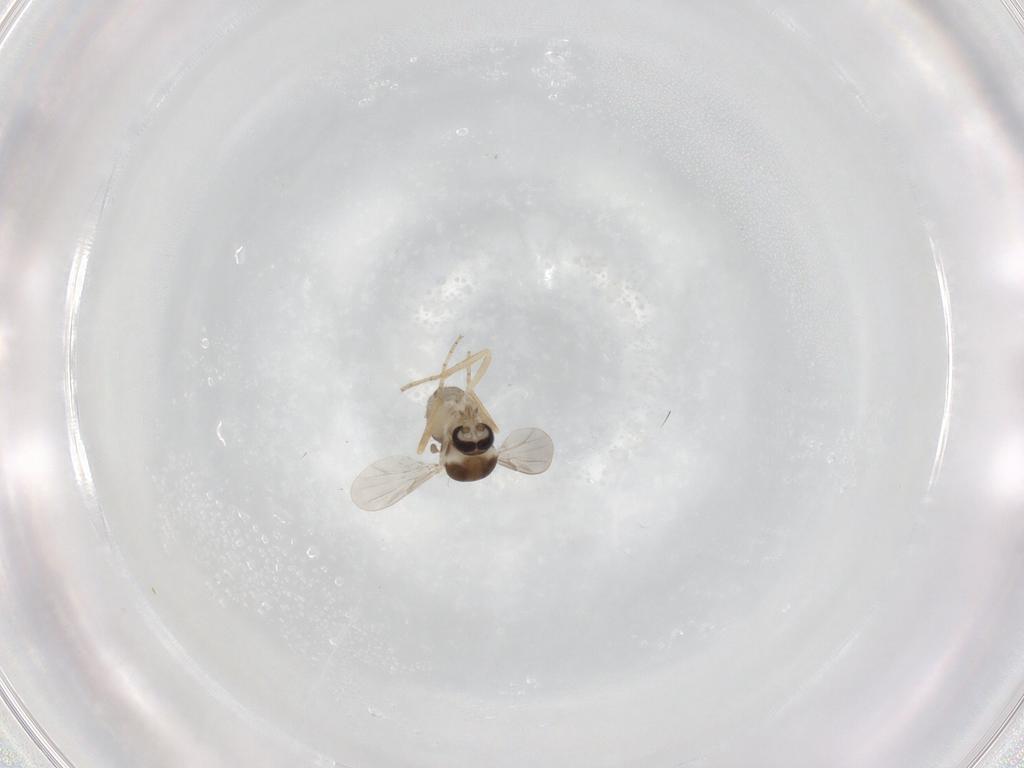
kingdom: Animalia
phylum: Arthropoda
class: Insecta
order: Diptera
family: Ceratopogonidae
